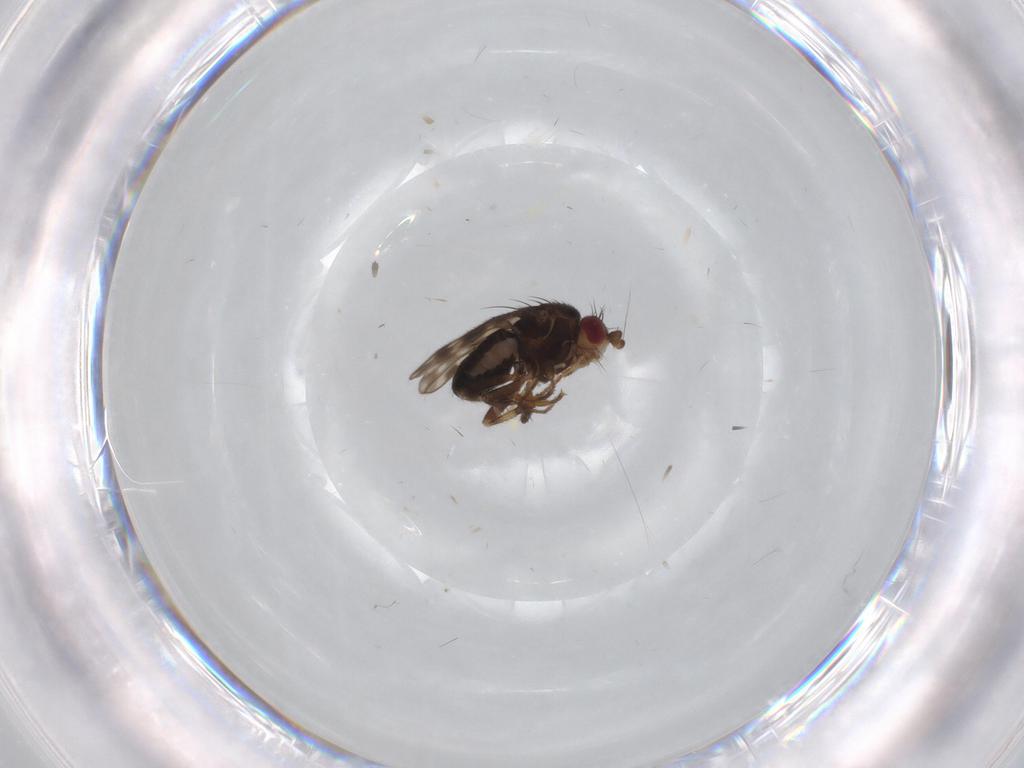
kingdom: Animalia
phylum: Arthropoda
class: Insecta
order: Diptera
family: Sphaeroceridae
